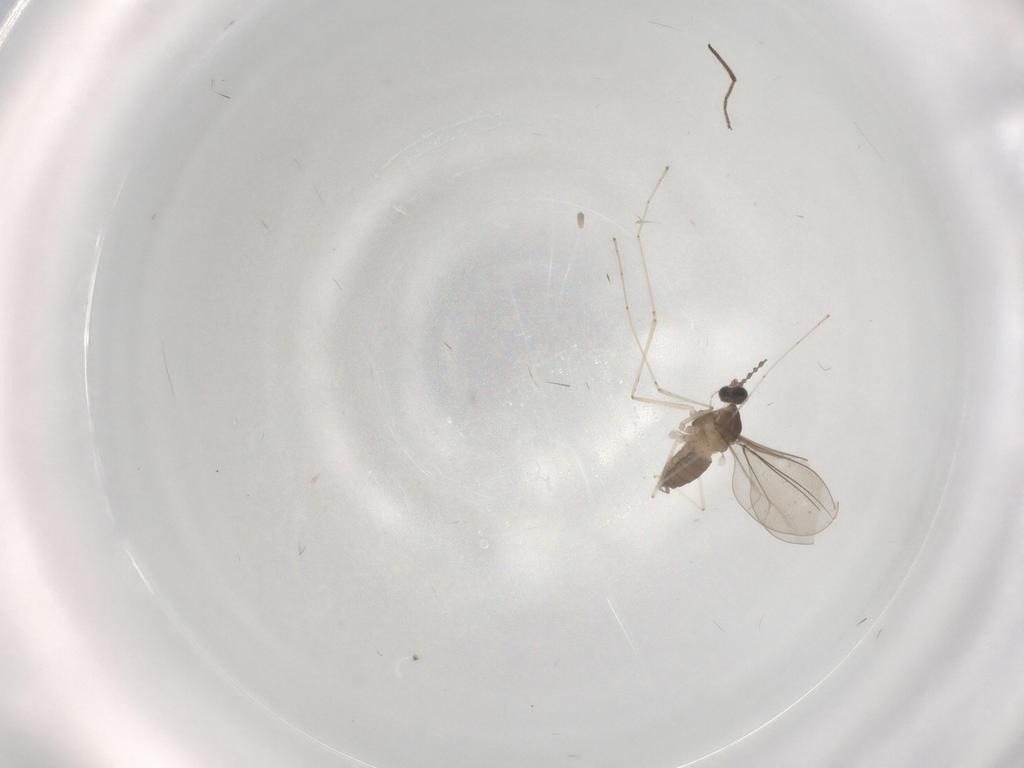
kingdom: Animalia
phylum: Arthropoda
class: Insecta
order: Diptera
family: Cecidomyiidae
